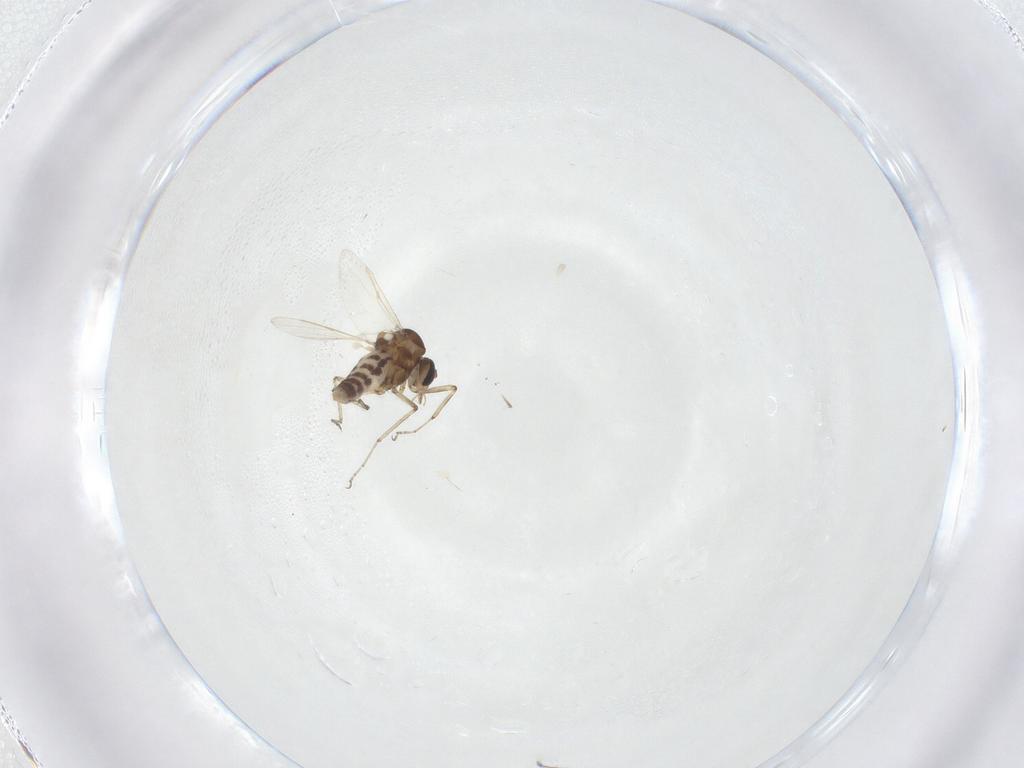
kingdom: Animalia
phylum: Arthropoda
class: Insecta
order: Diptera
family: Ceratopogonidae
